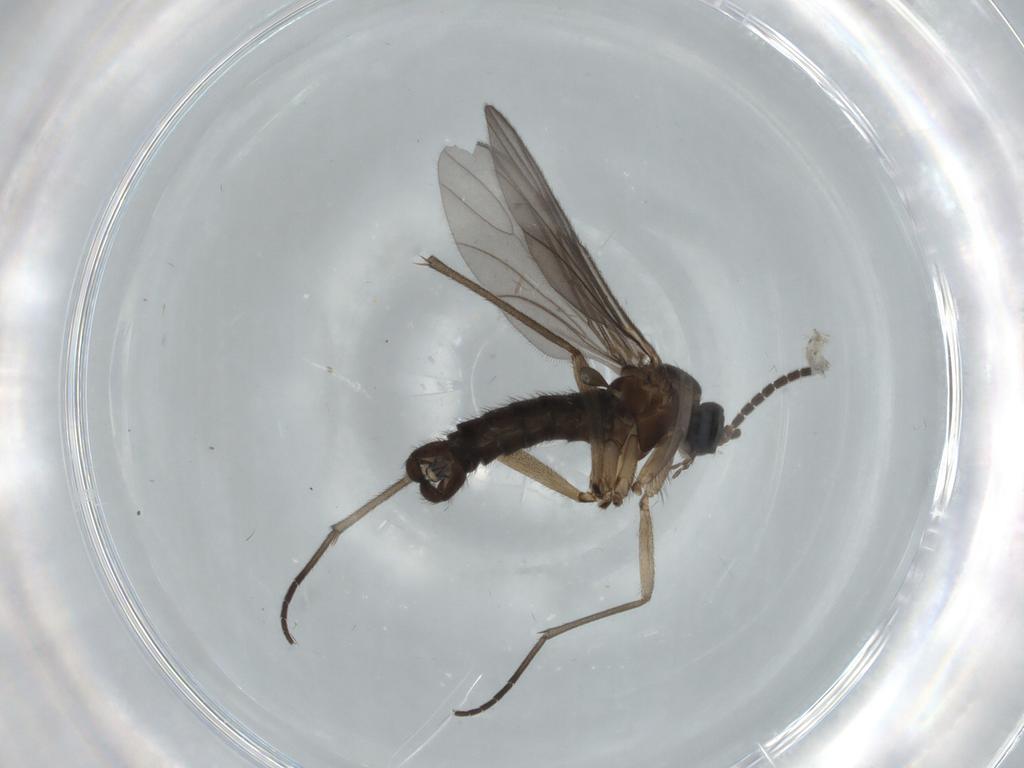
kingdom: Animalia
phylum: Arthropoda
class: Insecta
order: Diptera
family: Sciaridae
